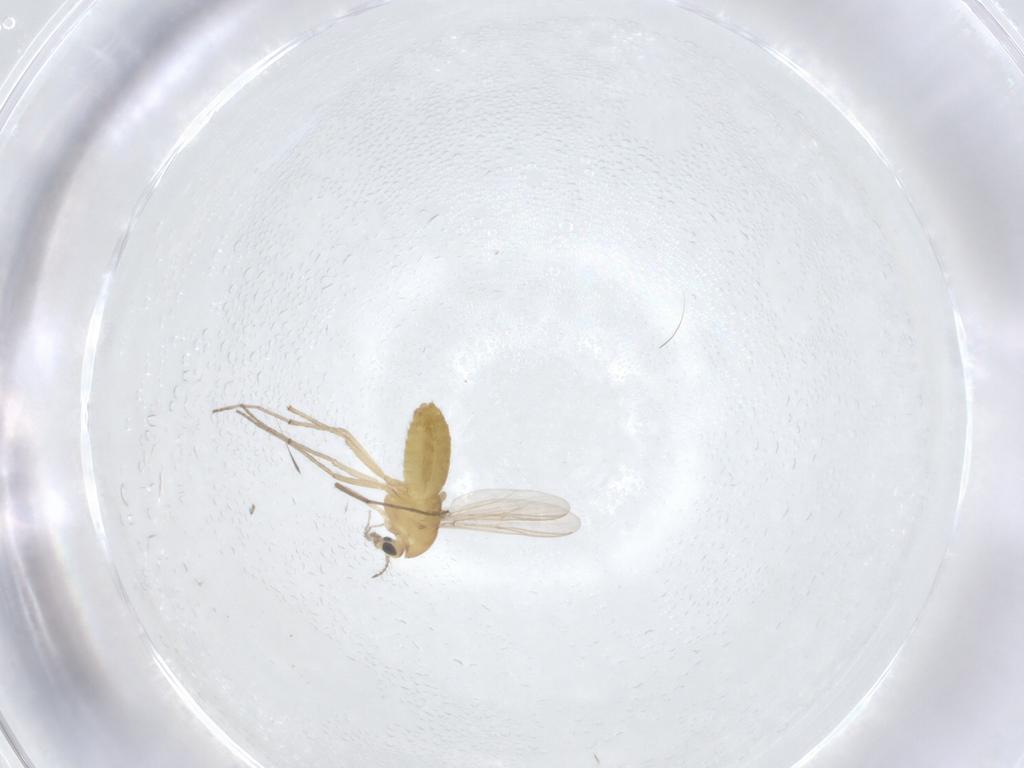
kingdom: Animalia
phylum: Arthropoda
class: Insecta
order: Diptera
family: Chironomidae
